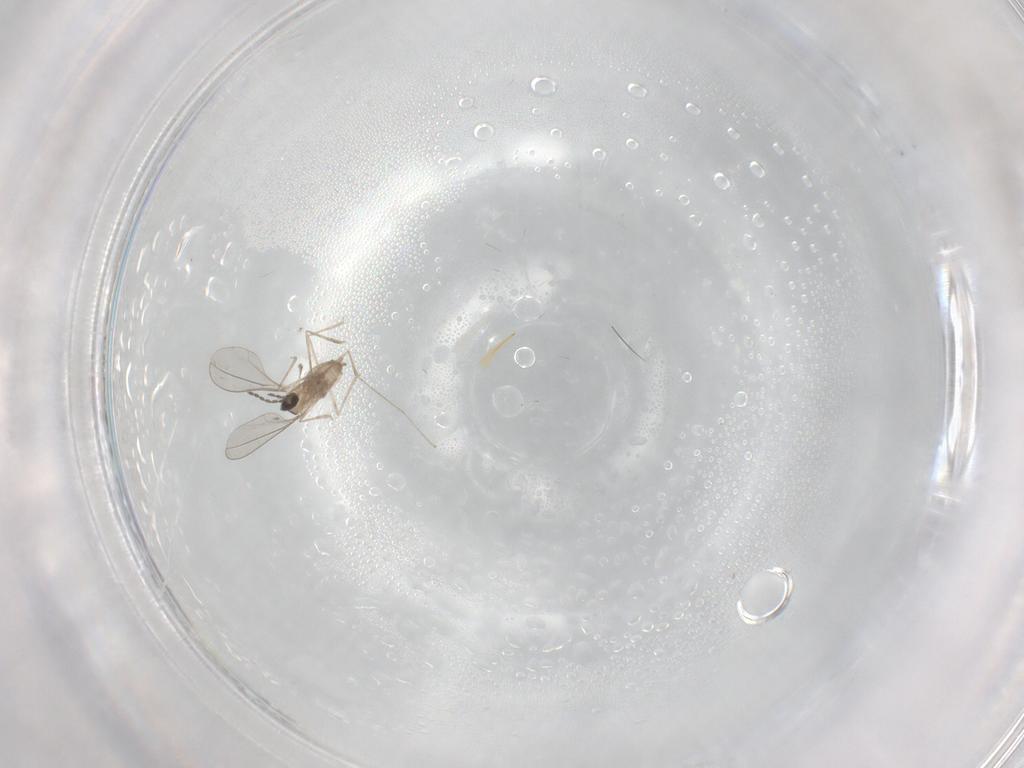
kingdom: Animalia
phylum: Arthropoda
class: Insecta
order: Diptera
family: Cecidomyiidae
